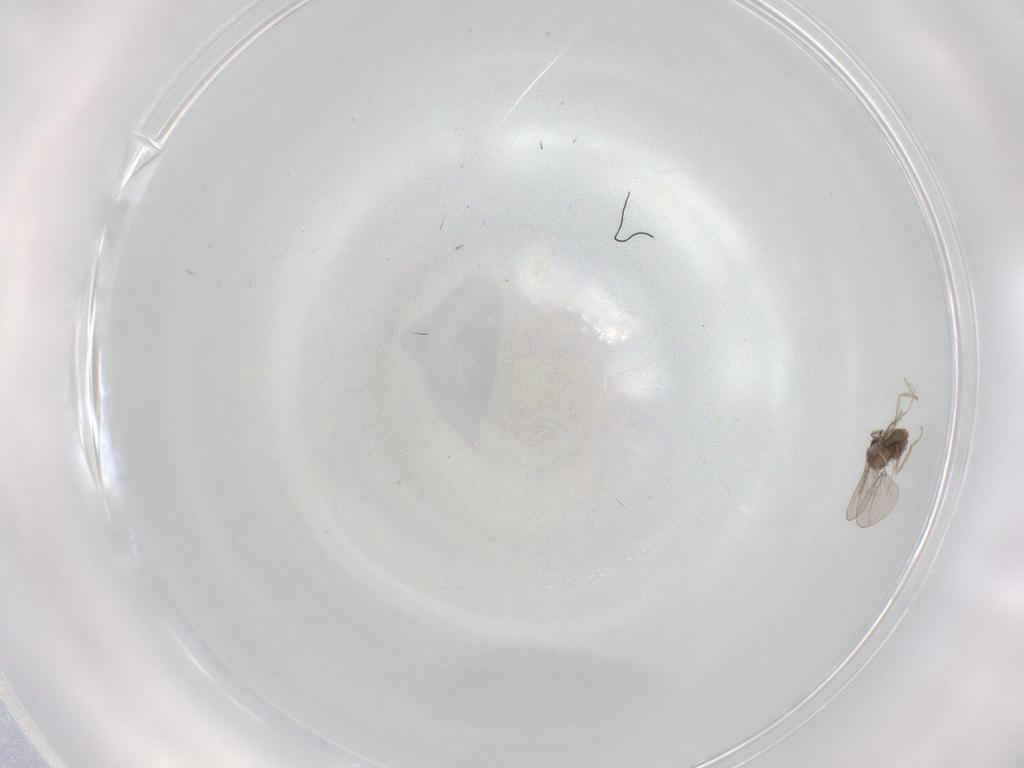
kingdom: Animalia
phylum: Arthropoda
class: Insecta
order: Diptera
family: Cecidomyiidae
